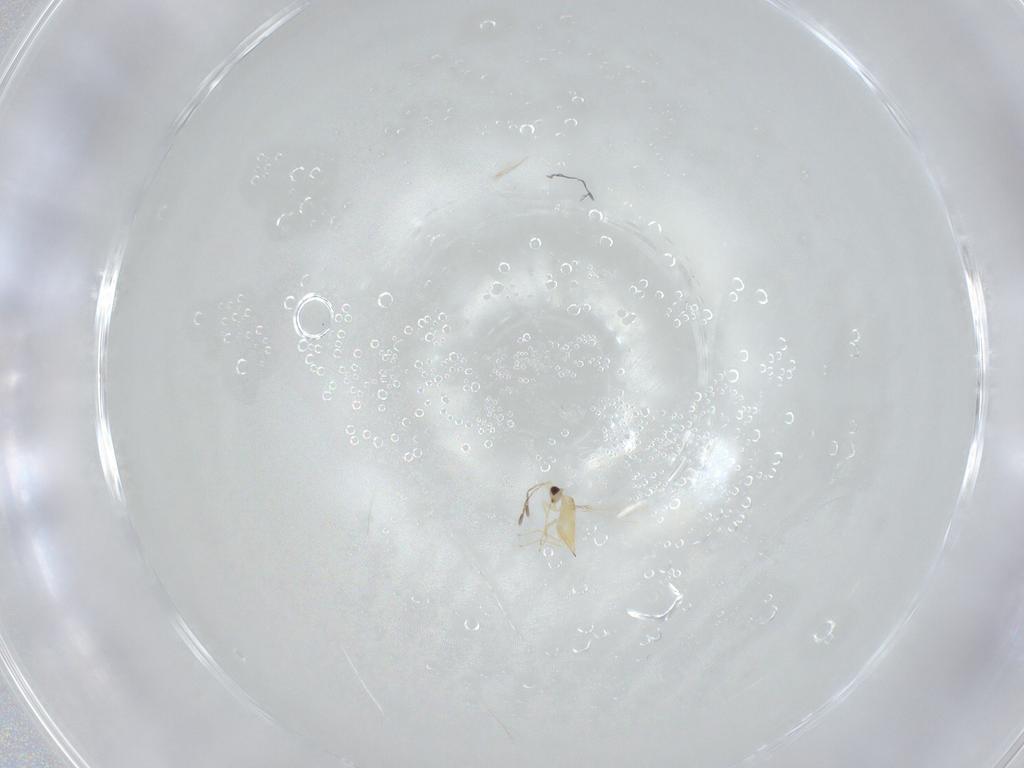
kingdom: Animalia
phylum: Arthropoda
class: Insecta
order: Hymenoptera
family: Mymaridae
